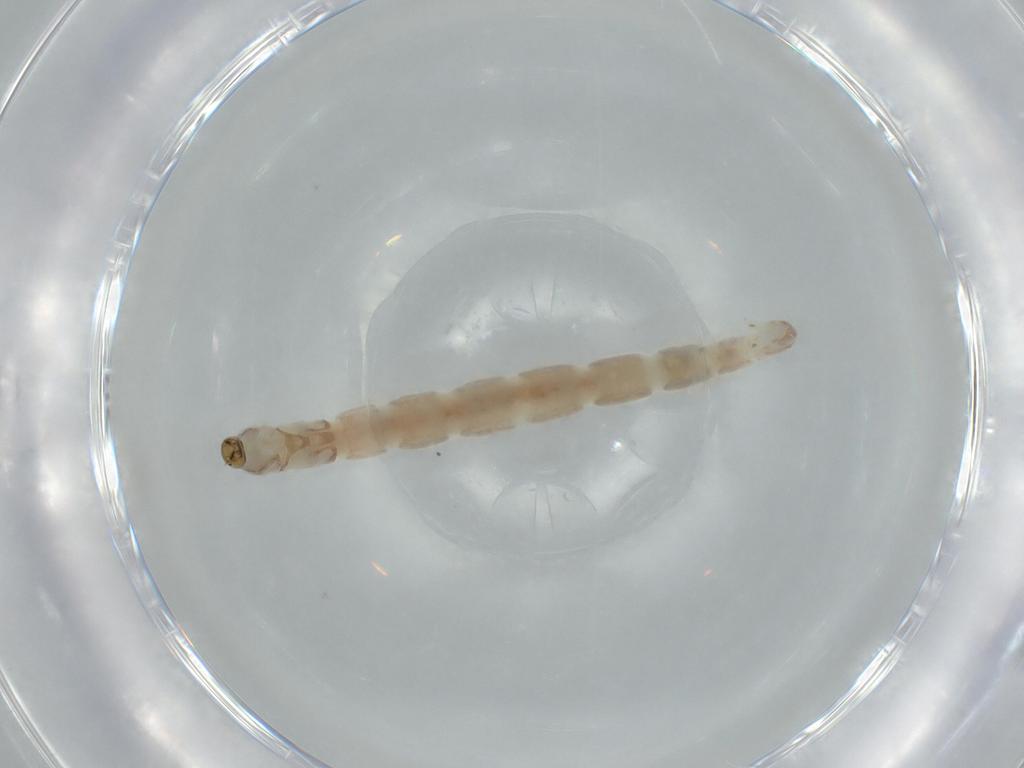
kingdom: Animalia
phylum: Arthropoda
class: Insecta
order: Diptera
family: Chironomidae
